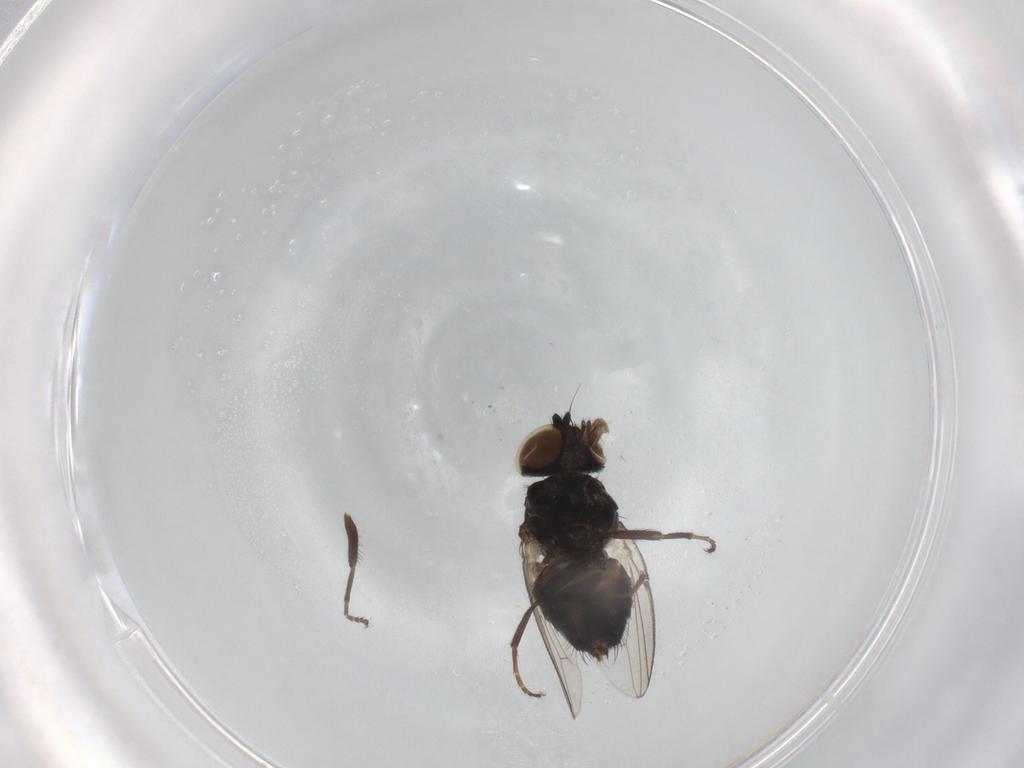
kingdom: Animalia
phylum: Arthropoda
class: Insecta
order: Diptera
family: Milichiidae
